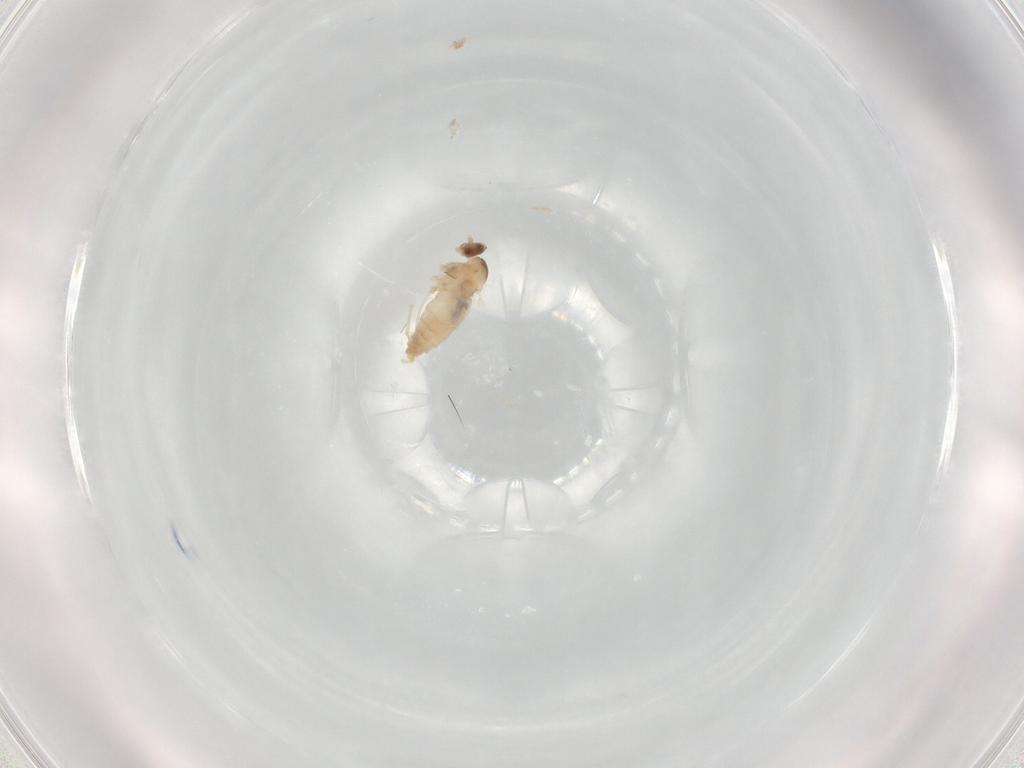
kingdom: Animalia
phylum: Arthropoda
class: Insecta
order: Diptera
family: Cecidomyiidae
